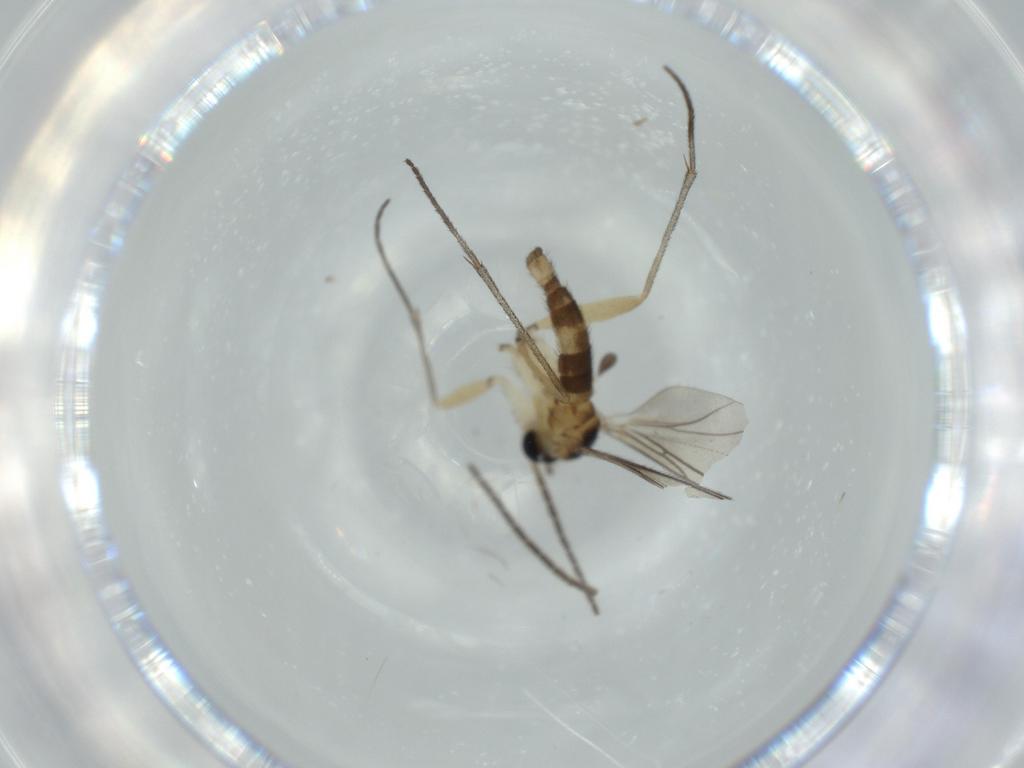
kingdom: Animalia
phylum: Arthropoda
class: Insecta
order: Diptera
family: Sciaridae
